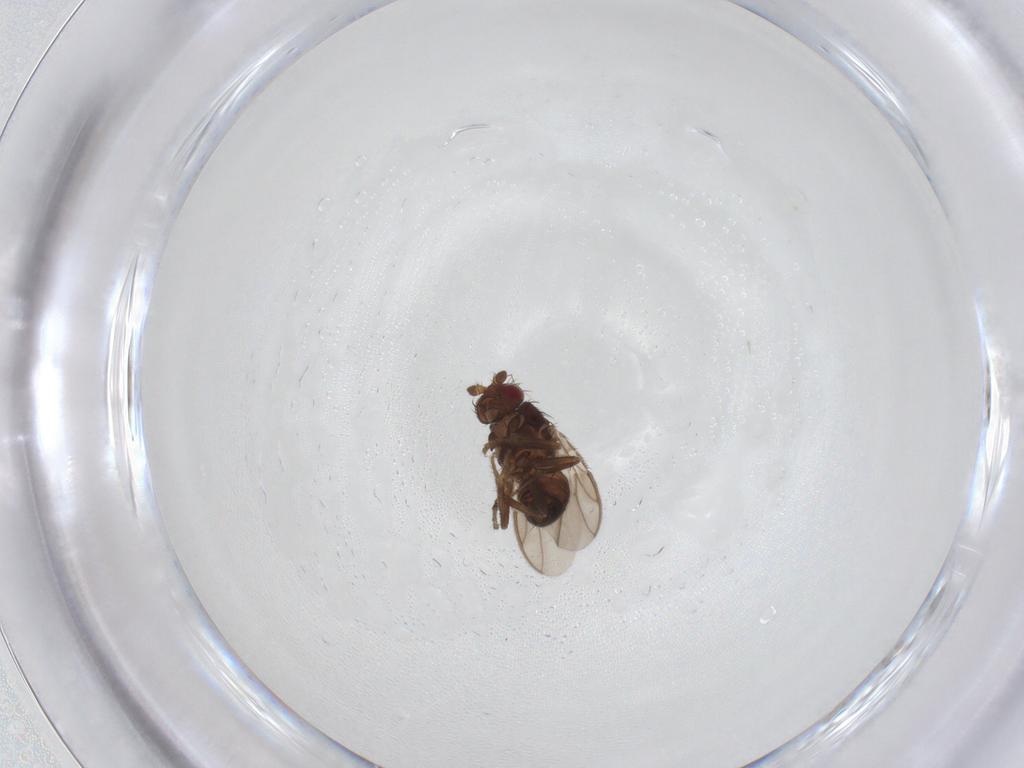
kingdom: Animalia
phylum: Arthropoda
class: Insecta
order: Diptera
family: Sphaeroceridae
